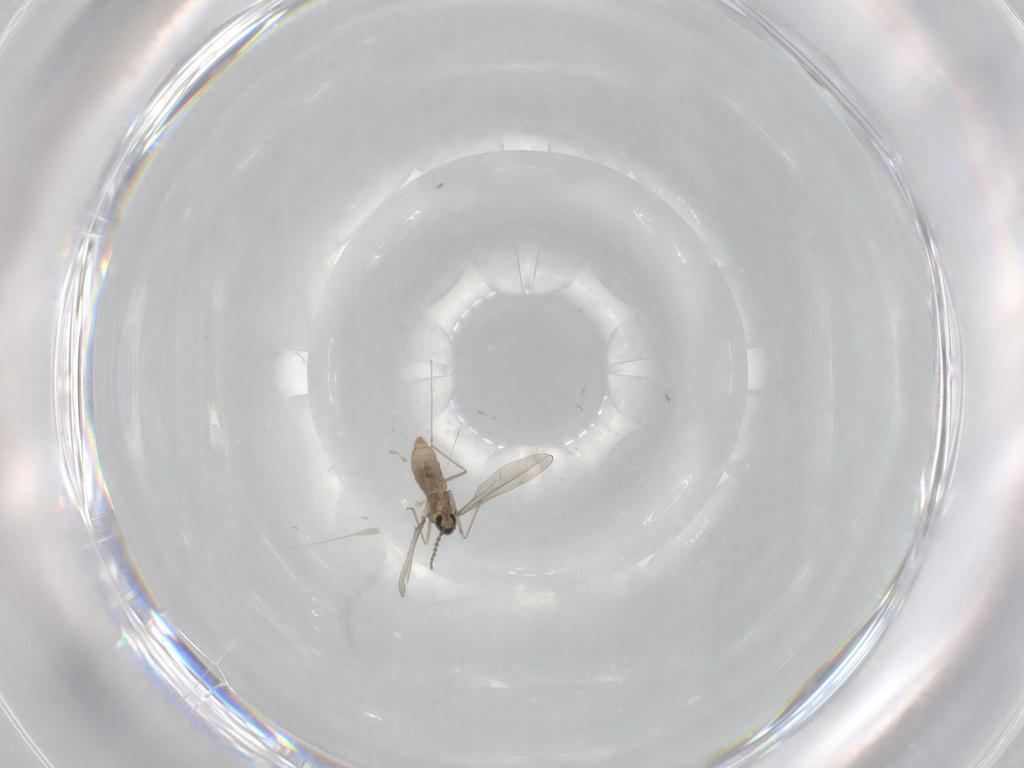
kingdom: Animalia
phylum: Arthropoda
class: Insecta
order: Diptera
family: Cecidomyiidae
